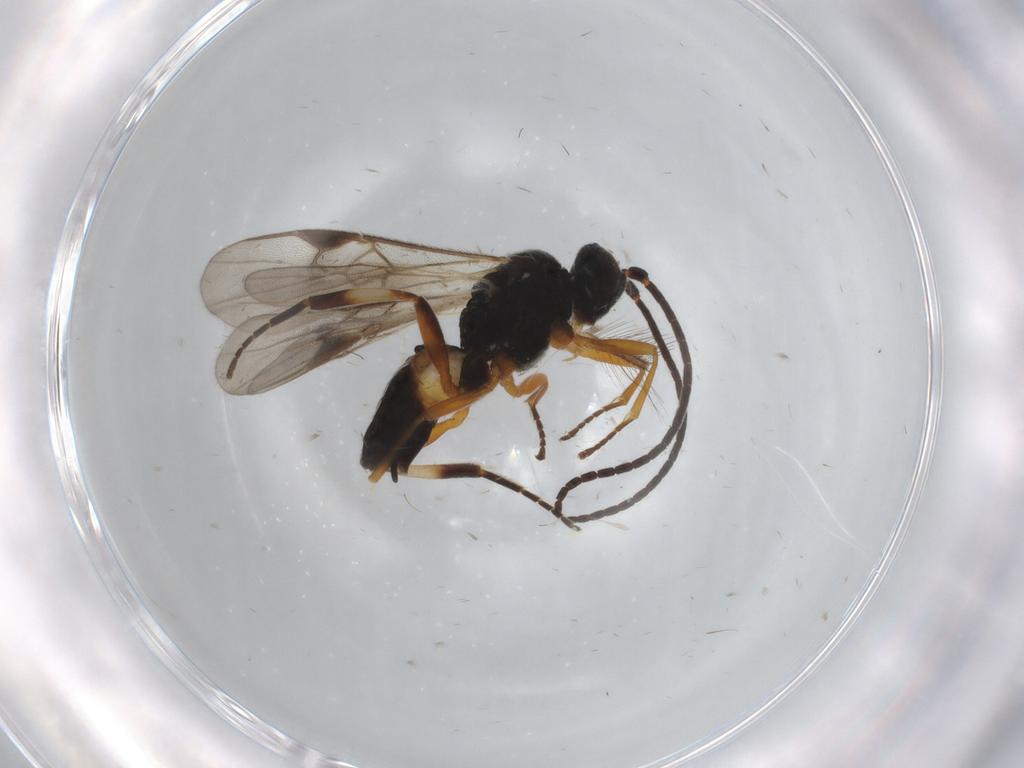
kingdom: Animalia
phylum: Arthropoda
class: Insecta
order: Hymenoptera
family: Braconidae
